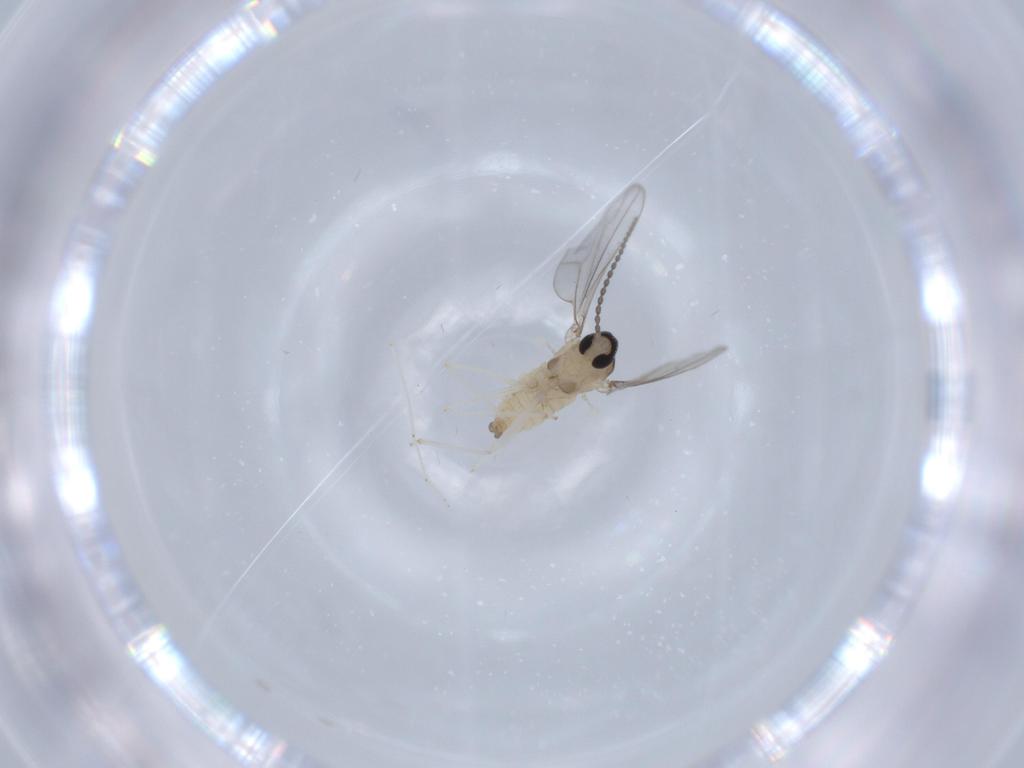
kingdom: Animalia
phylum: Arthropoda
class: Insecta
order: Diptera
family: Cecidomyiidae
